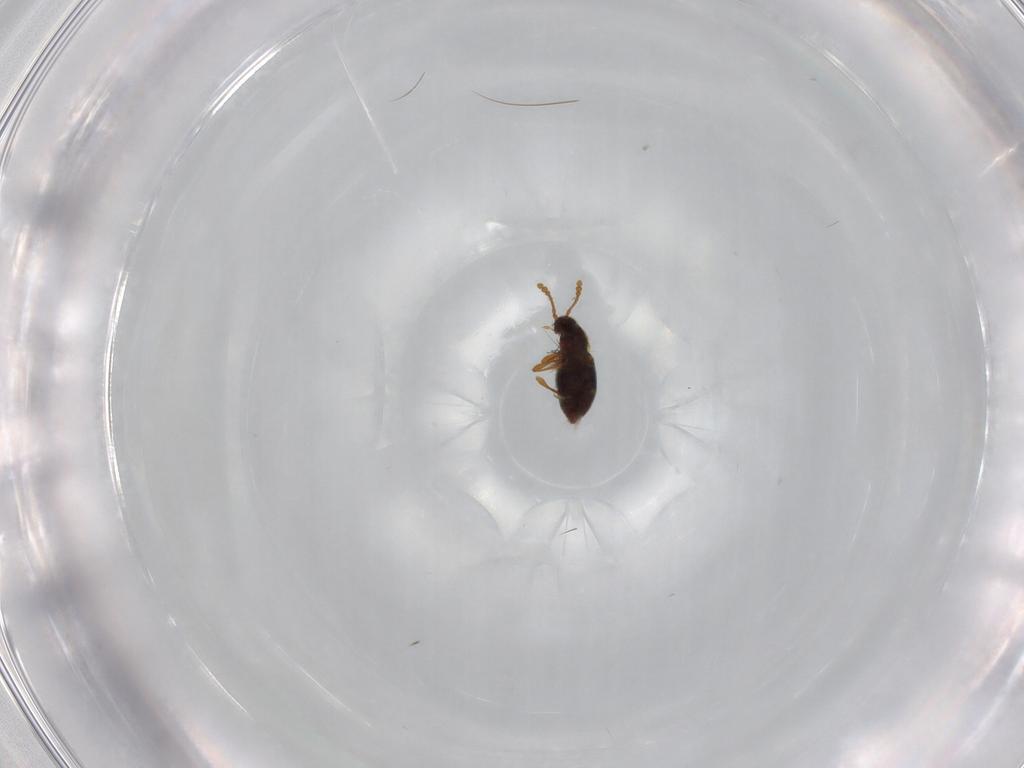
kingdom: Animalia
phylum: Arthropoda
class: Insecta
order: Coleoptera
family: Staphylinidae
